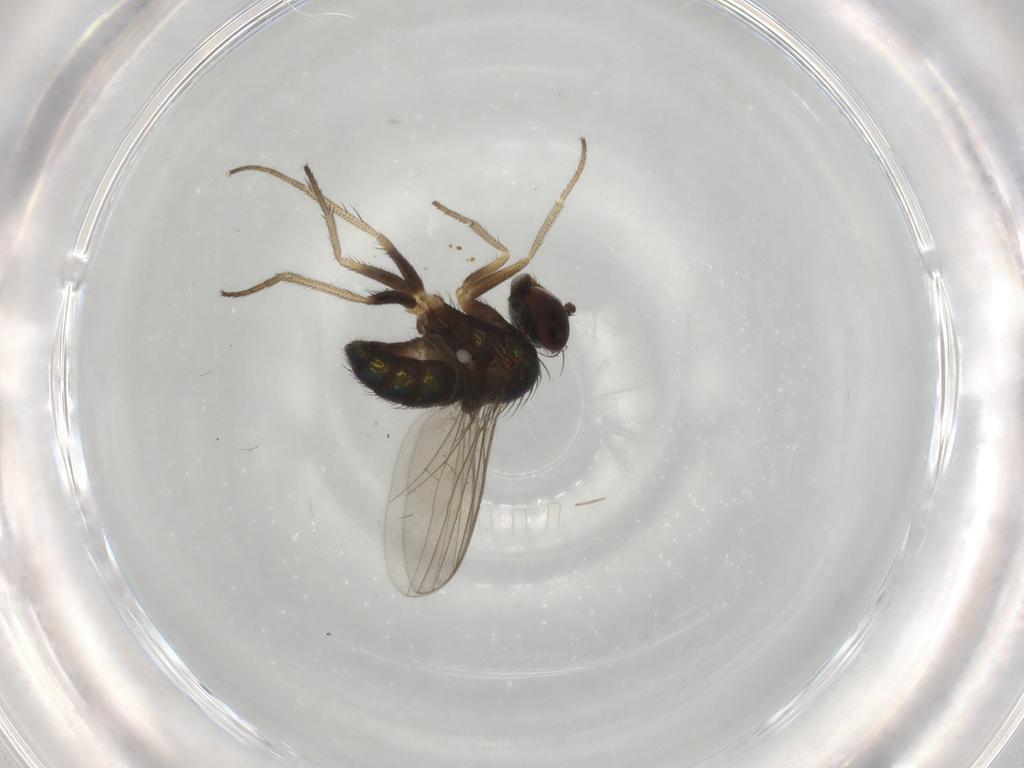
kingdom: Animalia
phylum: Arthropoda
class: Insecta
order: Diptera
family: Dolichopodidae
